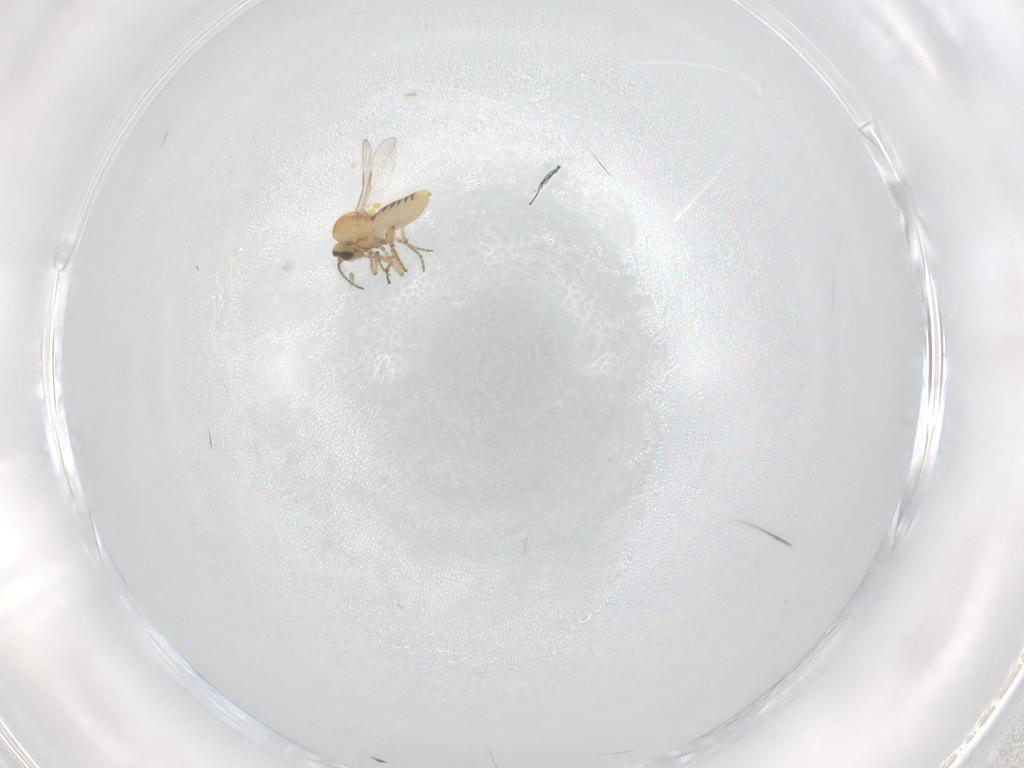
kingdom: Animalia
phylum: Arthropoda
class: Insecta
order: Diptera
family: Ceratopogonidae
